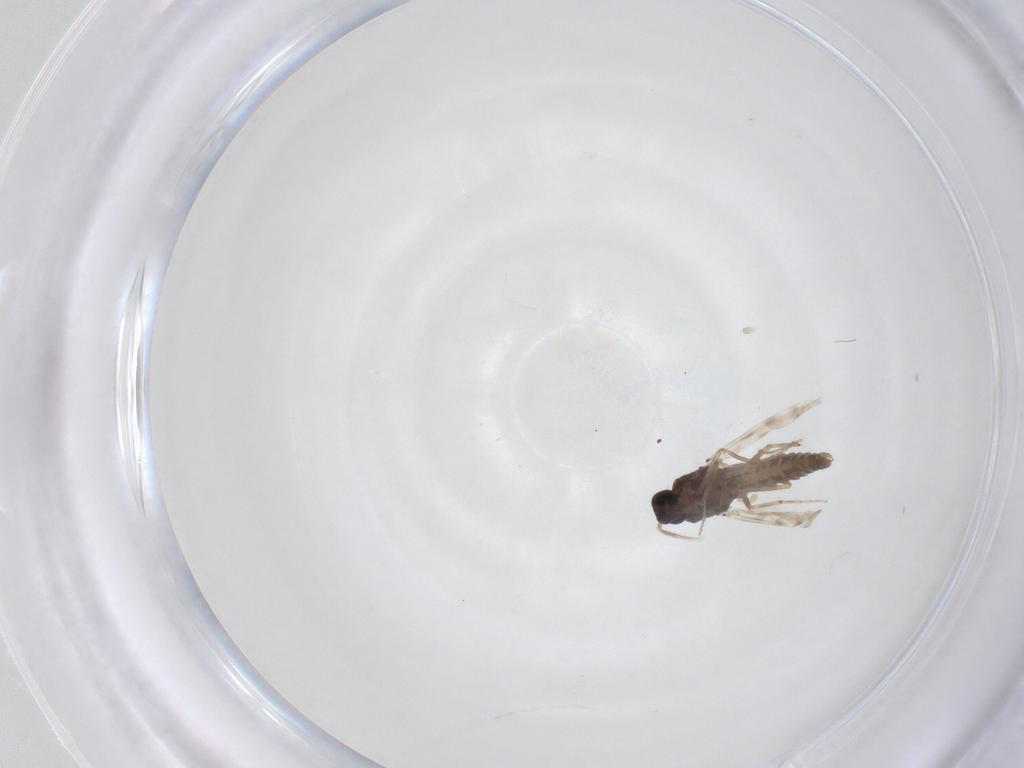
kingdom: Animalia
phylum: Arthropoda
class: Insecta
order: Diptera
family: Ceratopogonidae
